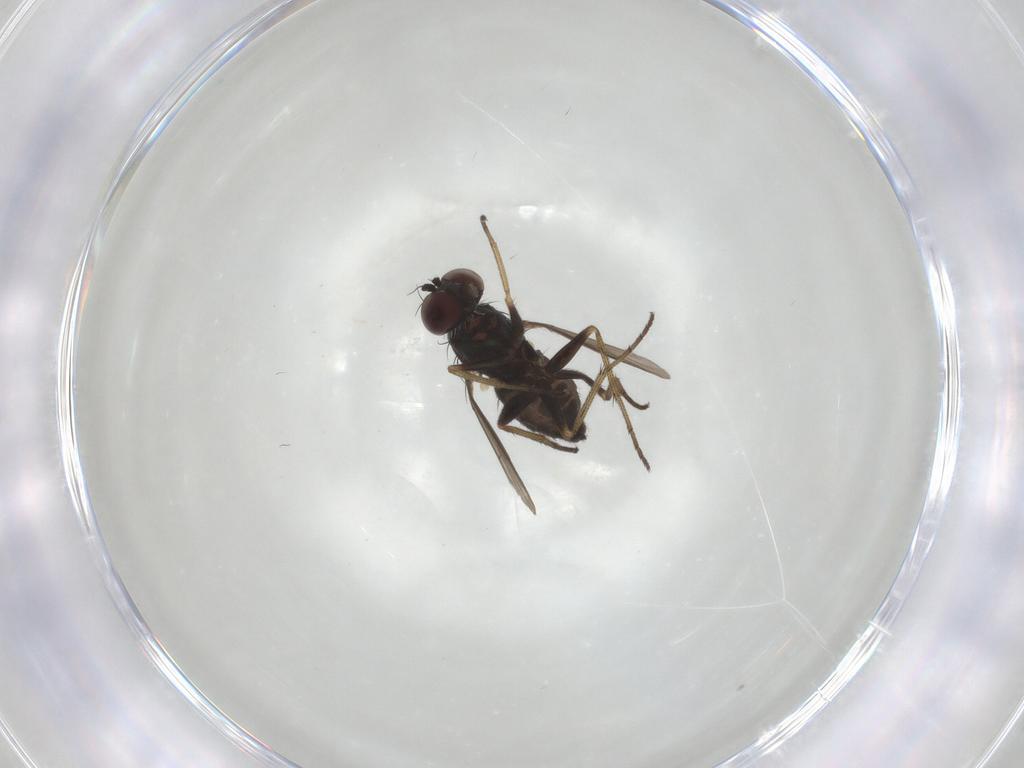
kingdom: Animalia
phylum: Arthropoda
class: Insecta
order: Diptera
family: Dolichopodidae
